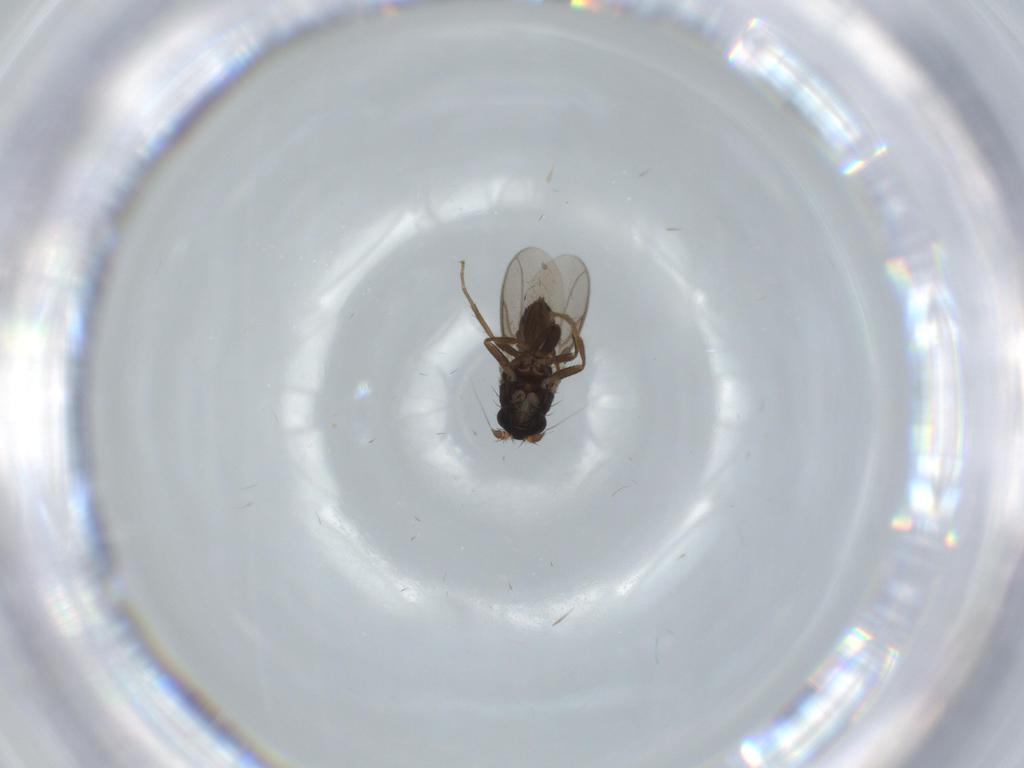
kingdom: Animalia
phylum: Arthropoda
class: Insecta
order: Diptera
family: Sphaeroceridae
